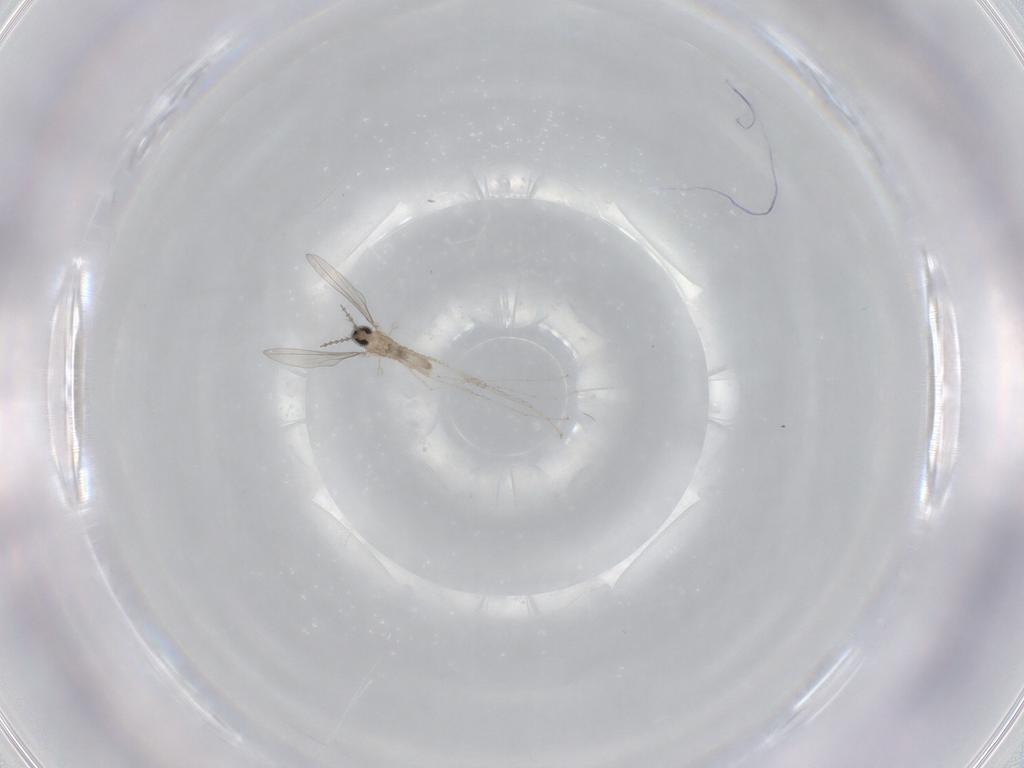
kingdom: Animalia
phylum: Arthropoda
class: Insecta
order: Diptera
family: Cecidomyiidae
